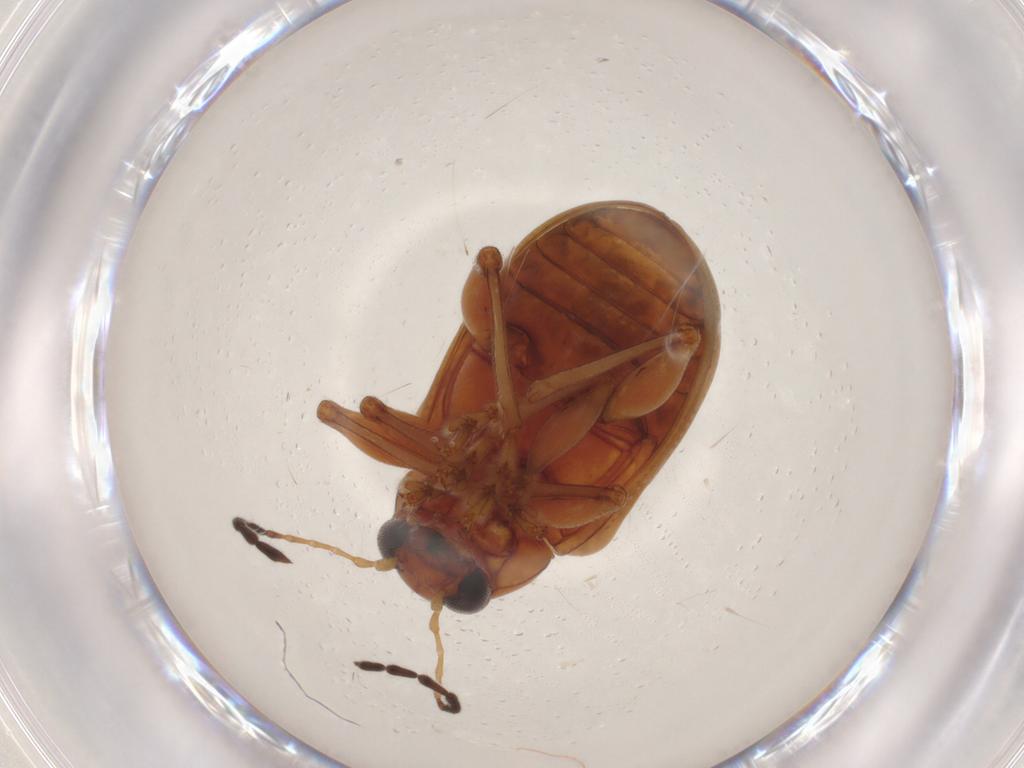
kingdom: Animalia
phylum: Arthropoda
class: Insecta
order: Coleoptera
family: Chrysomelidae
